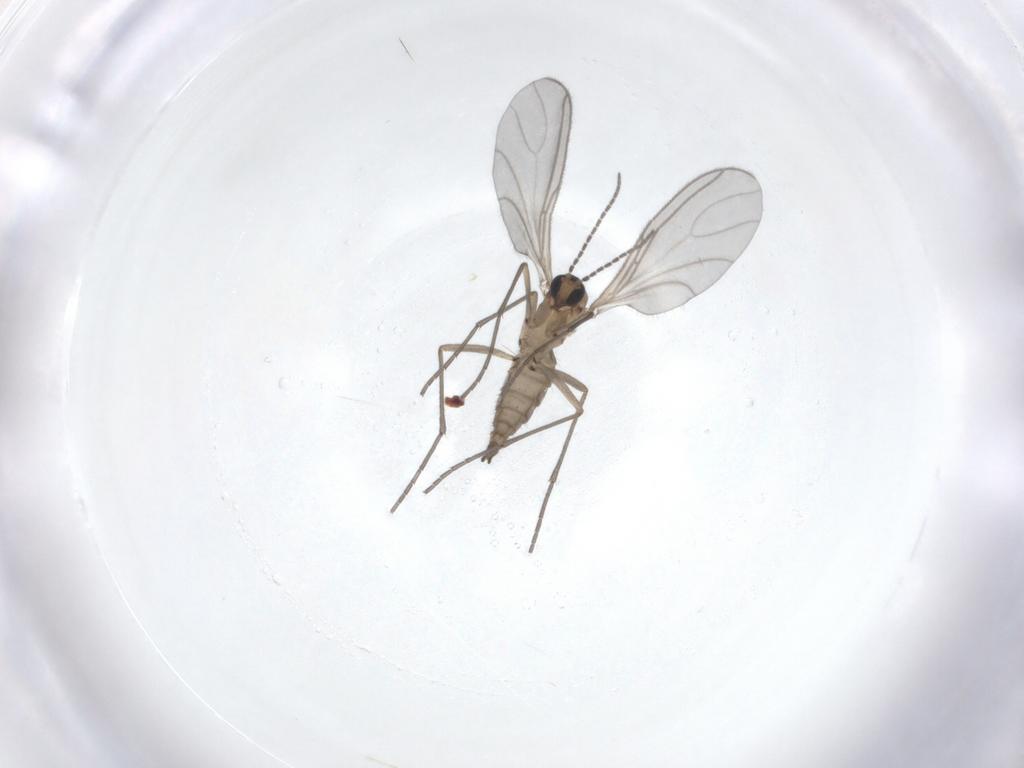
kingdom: Animalia
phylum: Arthropoda
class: Insecta
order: Diptera
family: Sciaridae
